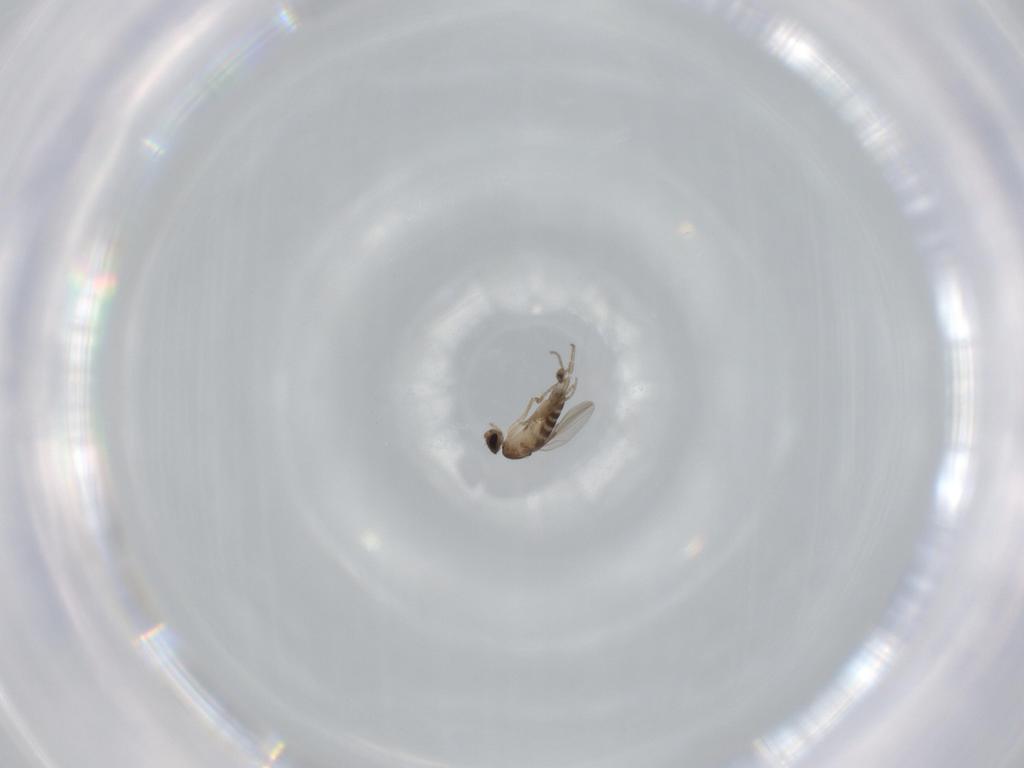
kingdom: Animalia
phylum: Arthropoda
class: Insecta
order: Diptera
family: Phoridae
